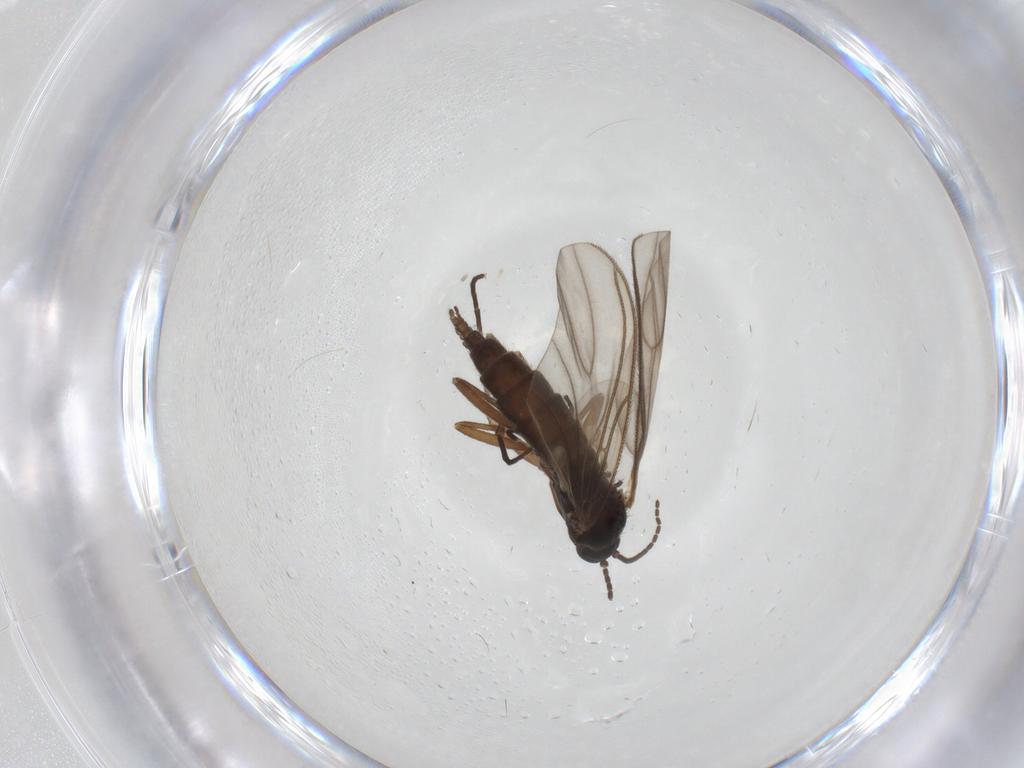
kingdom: Animalia
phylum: Arthropoda
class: Insecta
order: Diptera
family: Sciaridae
